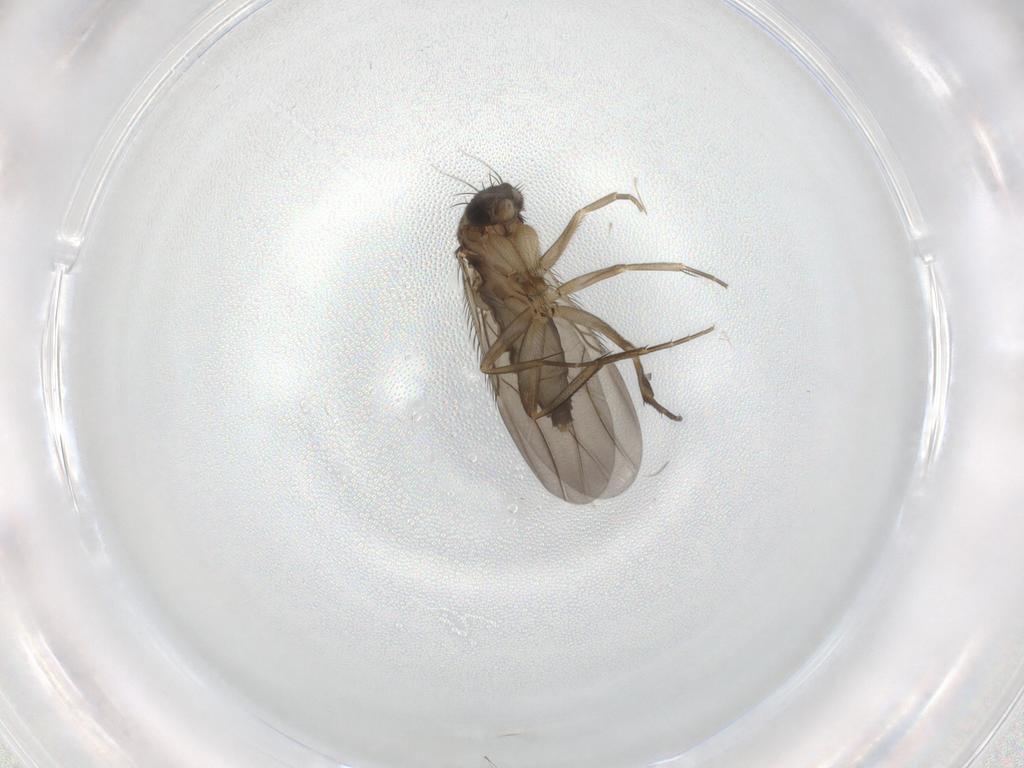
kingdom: Animalia
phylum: Arthropoda
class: Insecta
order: Diptera
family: Phoridae
